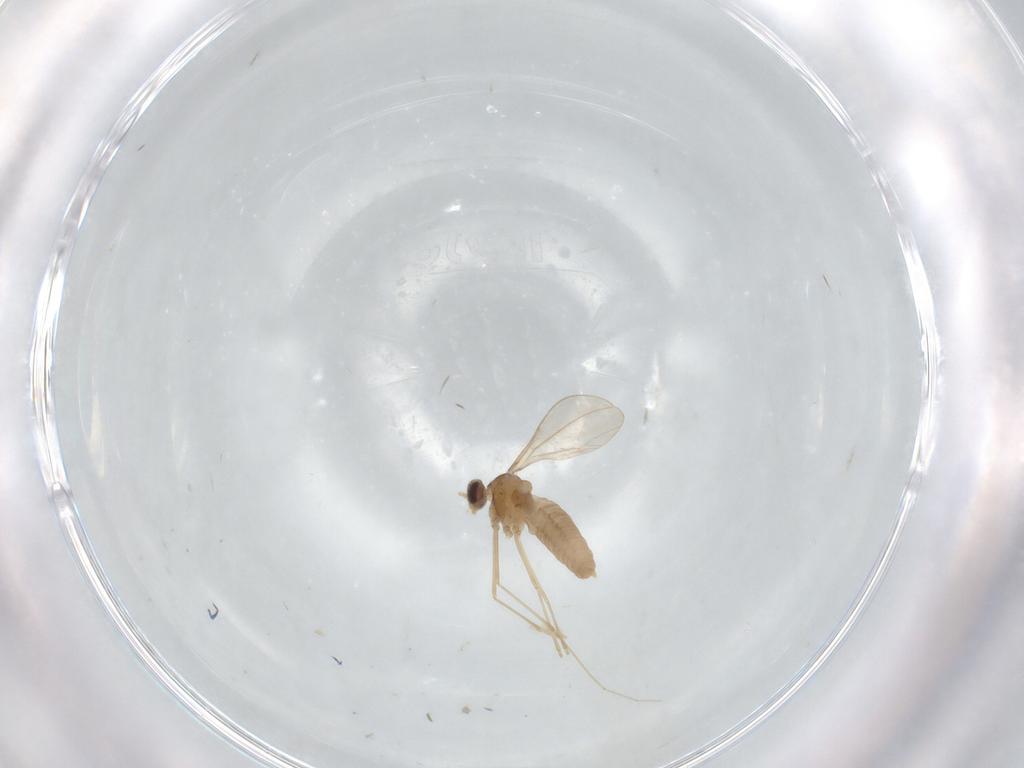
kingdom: Animalia
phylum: Arthropoda
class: Insecta
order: Diptera
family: Cecidomyiidae
